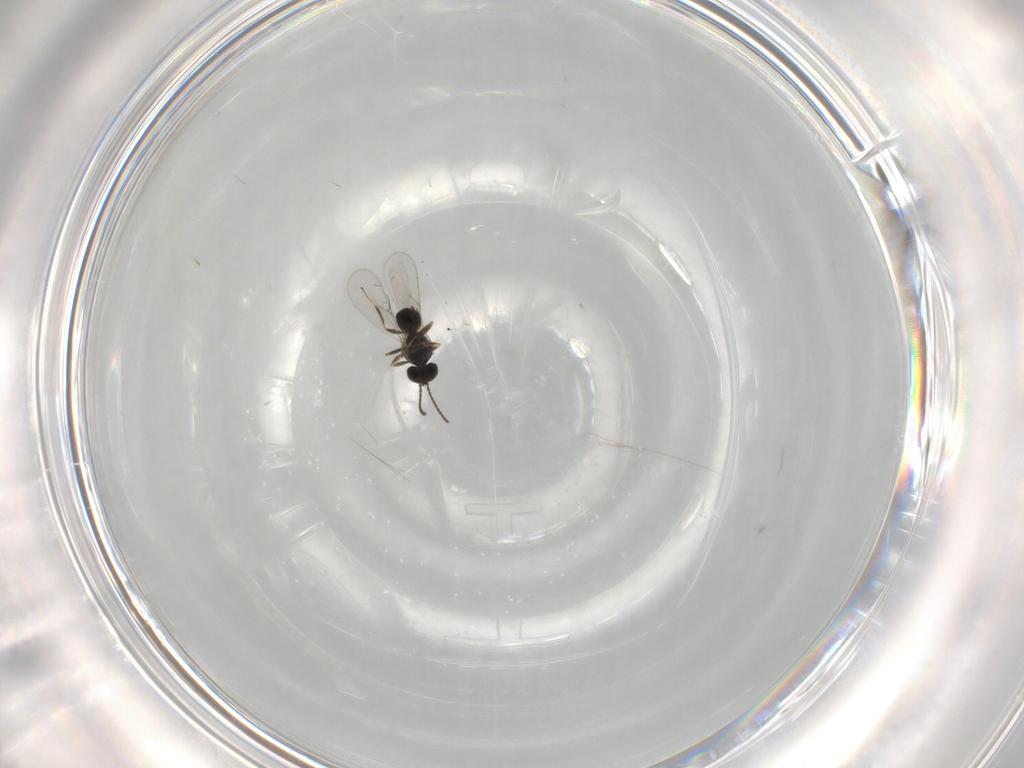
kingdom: Animalia
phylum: Arthropoda
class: Insecta
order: Hymenoptera
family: Scelionidae
